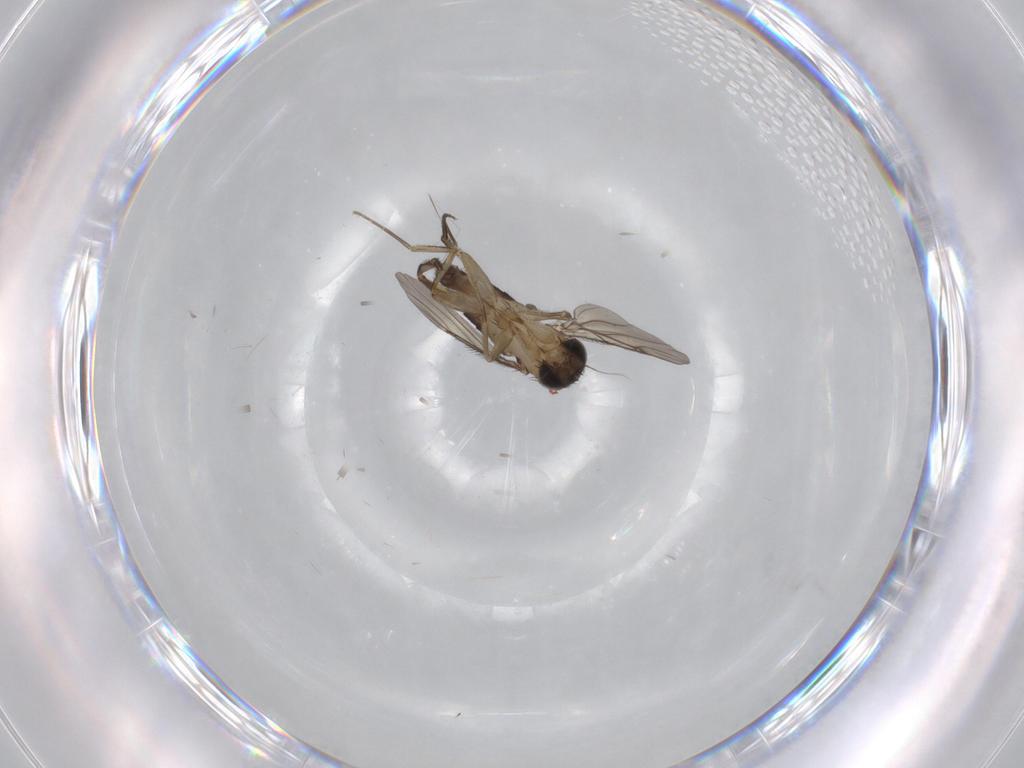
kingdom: Animalia
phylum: Arthropoda
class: Insecta
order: Diptera
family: Phoridae
